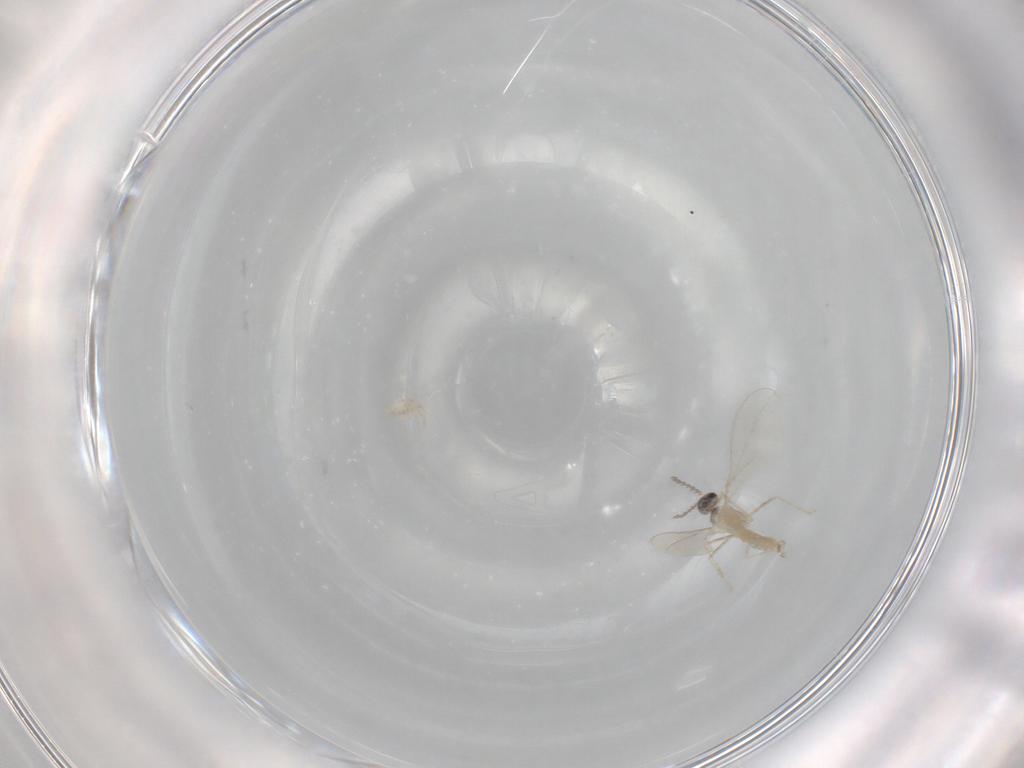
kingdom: Animalia
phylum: Arthropoda
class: Insecta
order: Diptera
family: Cecidomyiidae
